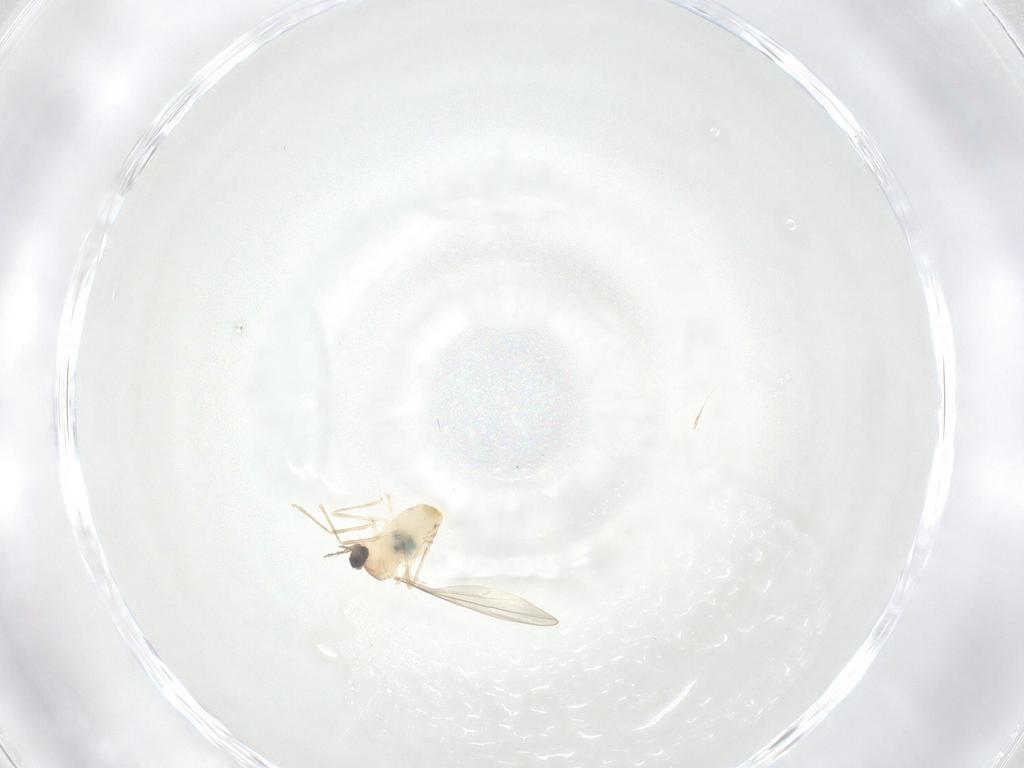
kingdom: Animalia
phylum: Arthropoda
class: Insecta
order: Diptera
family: Cecidomyiidae
